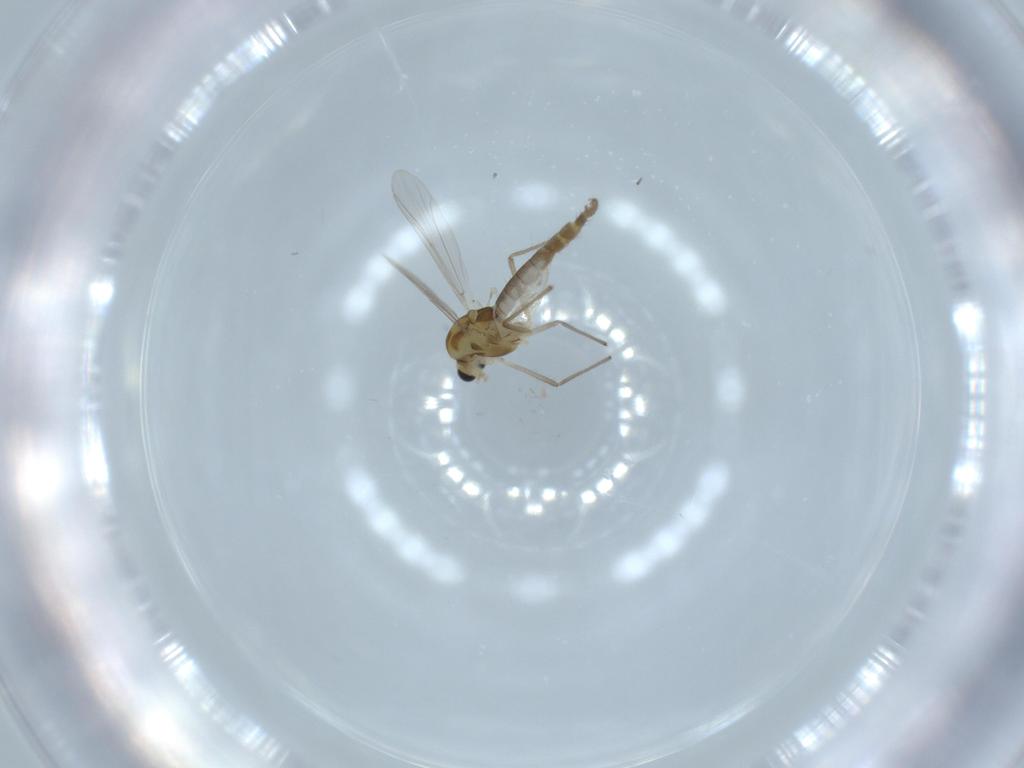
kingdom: Animalia
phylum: Arthropoda
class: Insecta
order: Diptera
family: Chironomidae
